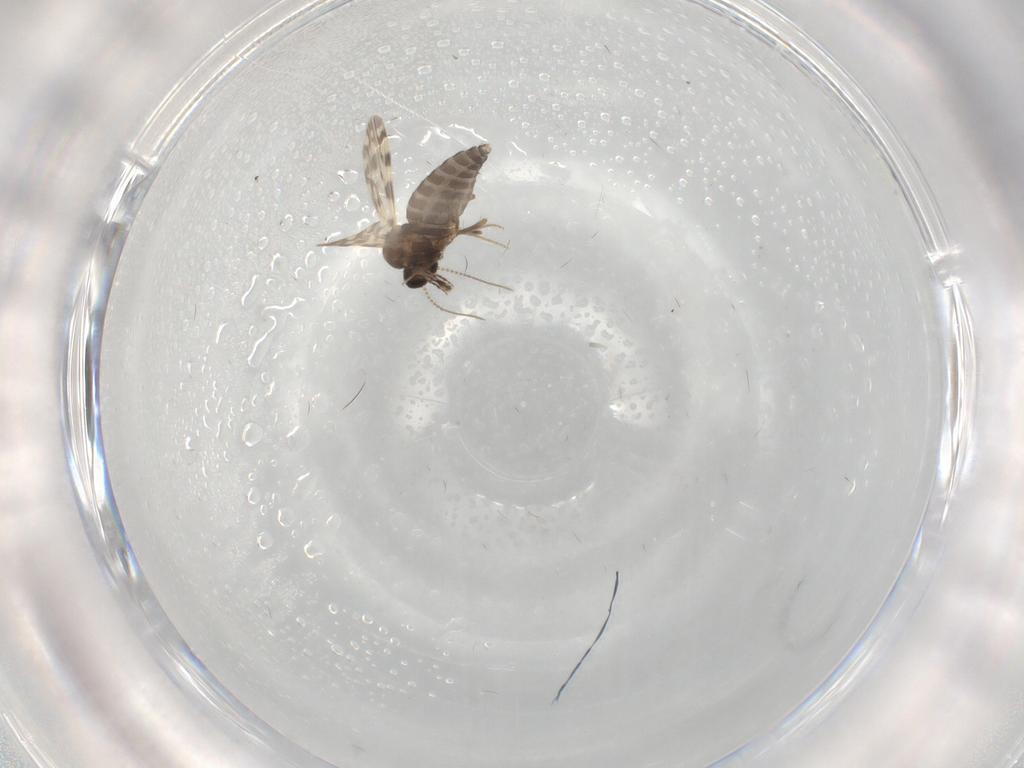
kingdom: Animalia
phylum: Arthropoda
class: Insecta
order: Diptera
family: Ceratopogonidae
